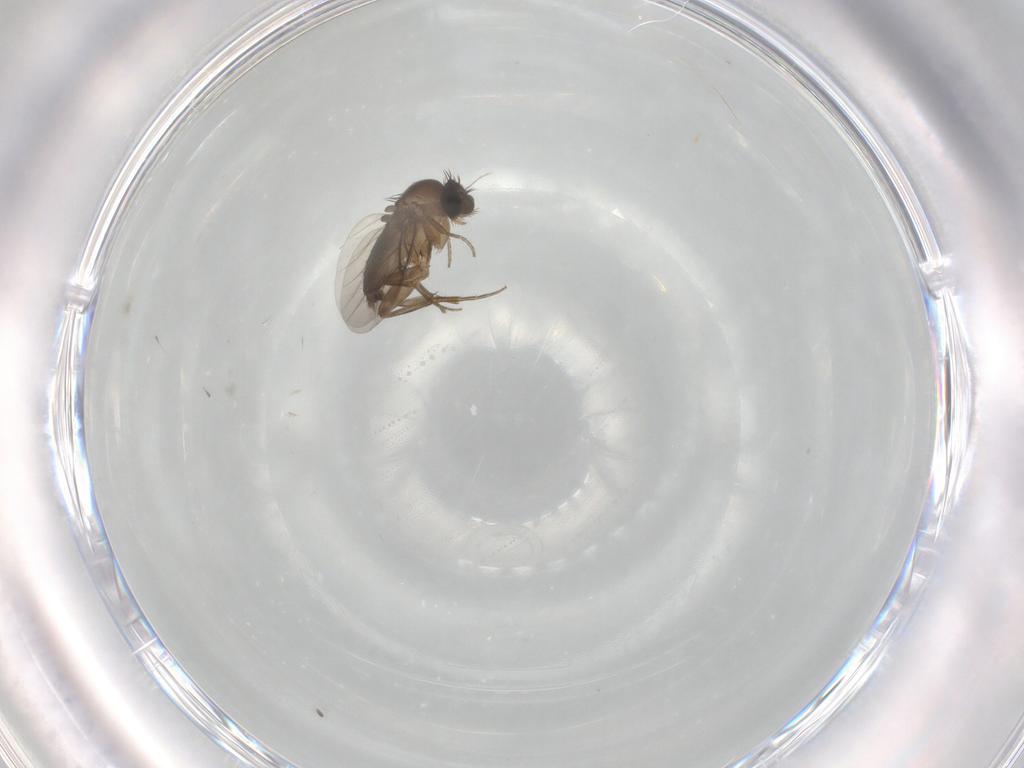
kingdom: Animalia
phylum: Arthropoda
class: Insecta
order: Diptera
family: Phoridae
